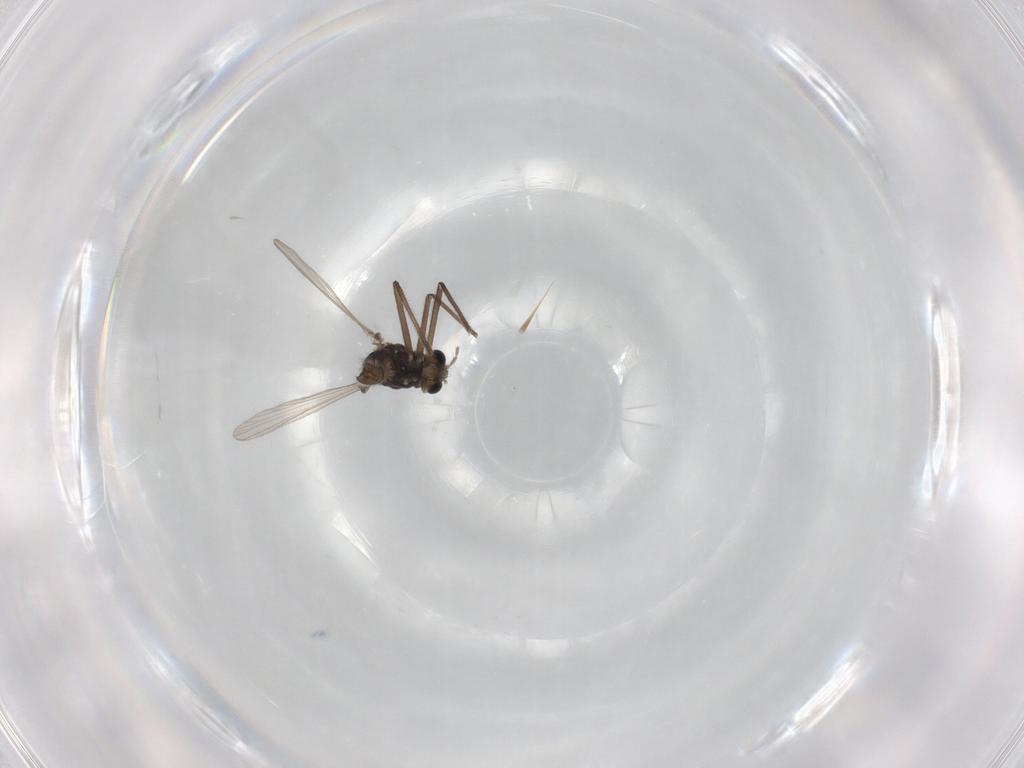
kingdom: Animalia
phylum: Arthropoda
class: Insecta
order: Diptera
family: Chironomidae
